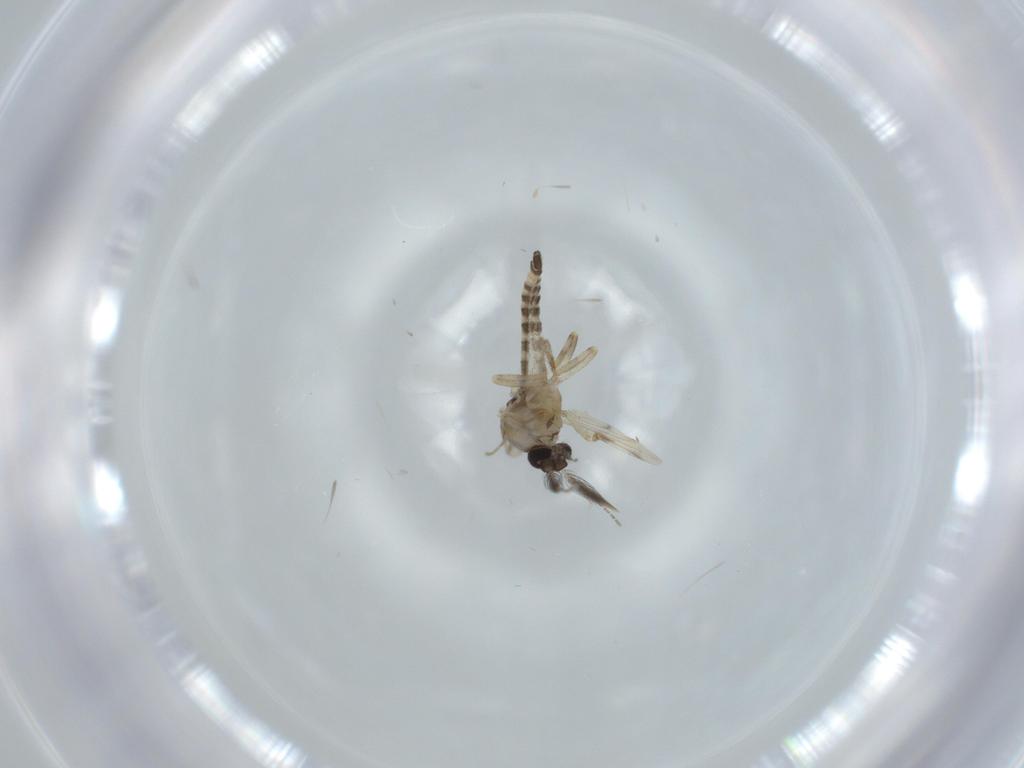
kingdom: Animalia
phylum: Arthropoda
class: Insecta
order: Diptera
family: Ceratopogonidae
